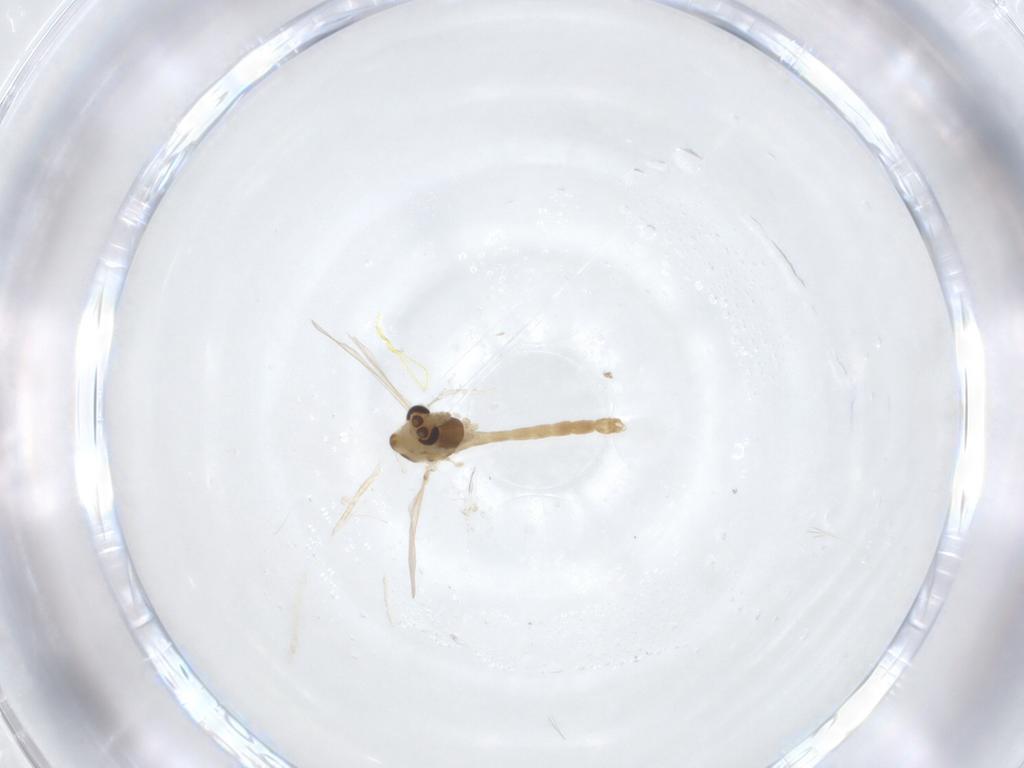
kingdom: Animalia
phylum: Arthropoda
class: Insecta
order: Diptera
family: Chironomidae
